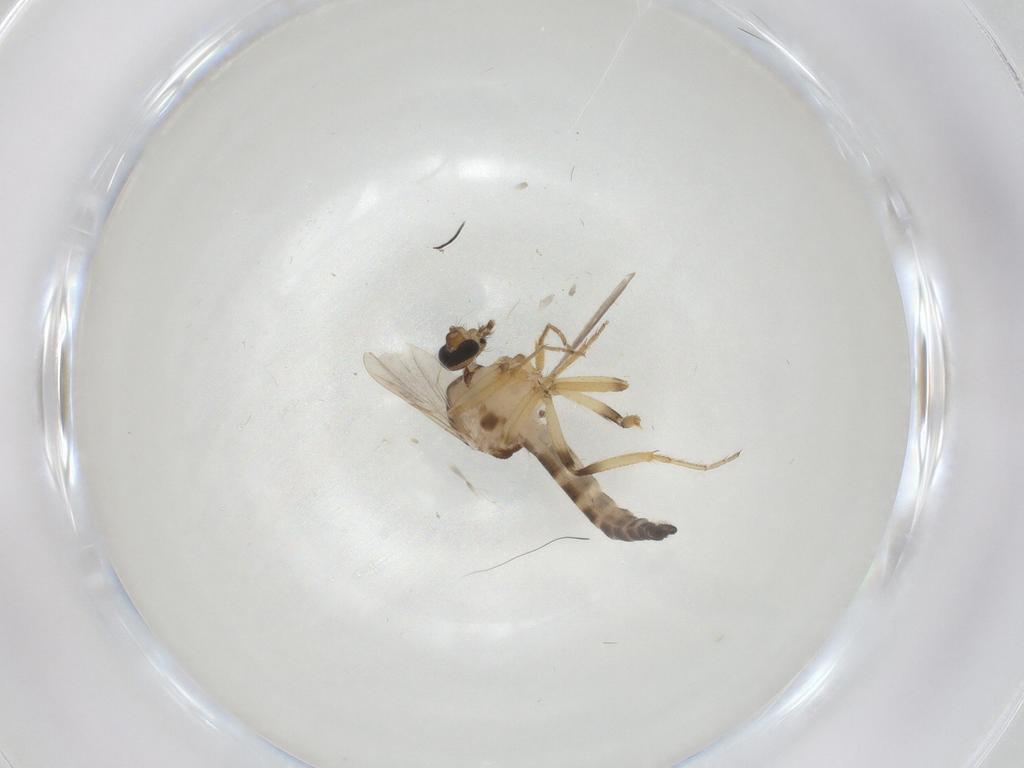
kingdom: Animalia
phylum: Arthropoda
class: Insecta
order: Diptera
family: Ceratopogonidae
